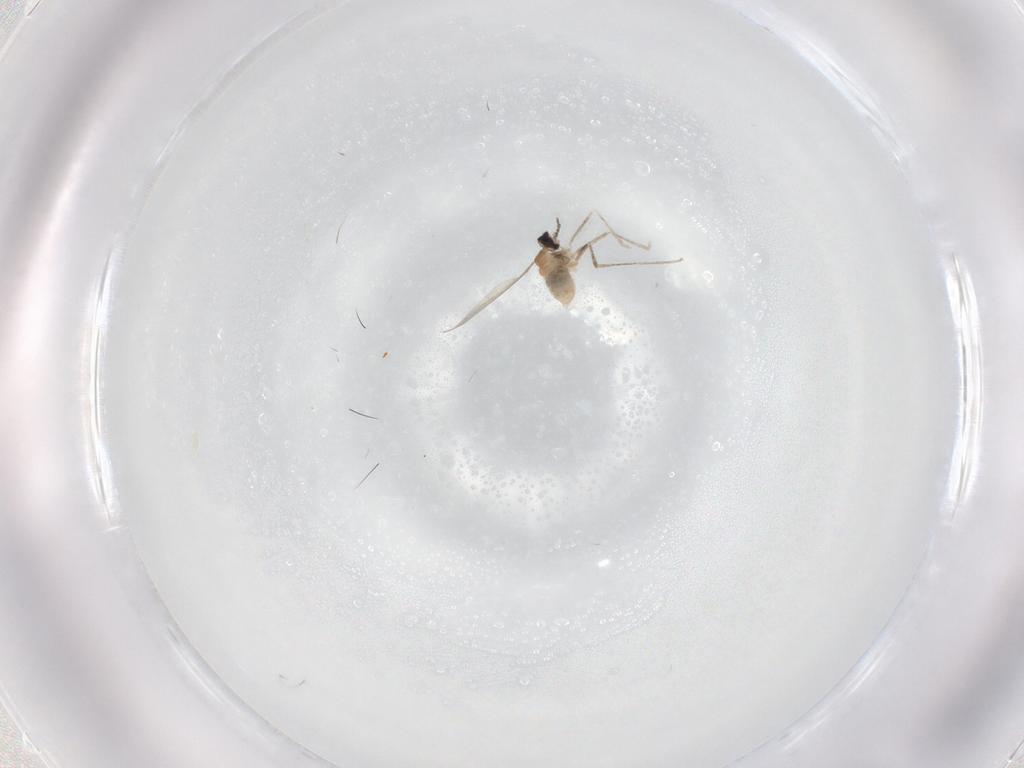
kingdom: Animalia
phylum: Arthropoda
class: Insecta
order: Diptera
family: Cecidomyiidae
